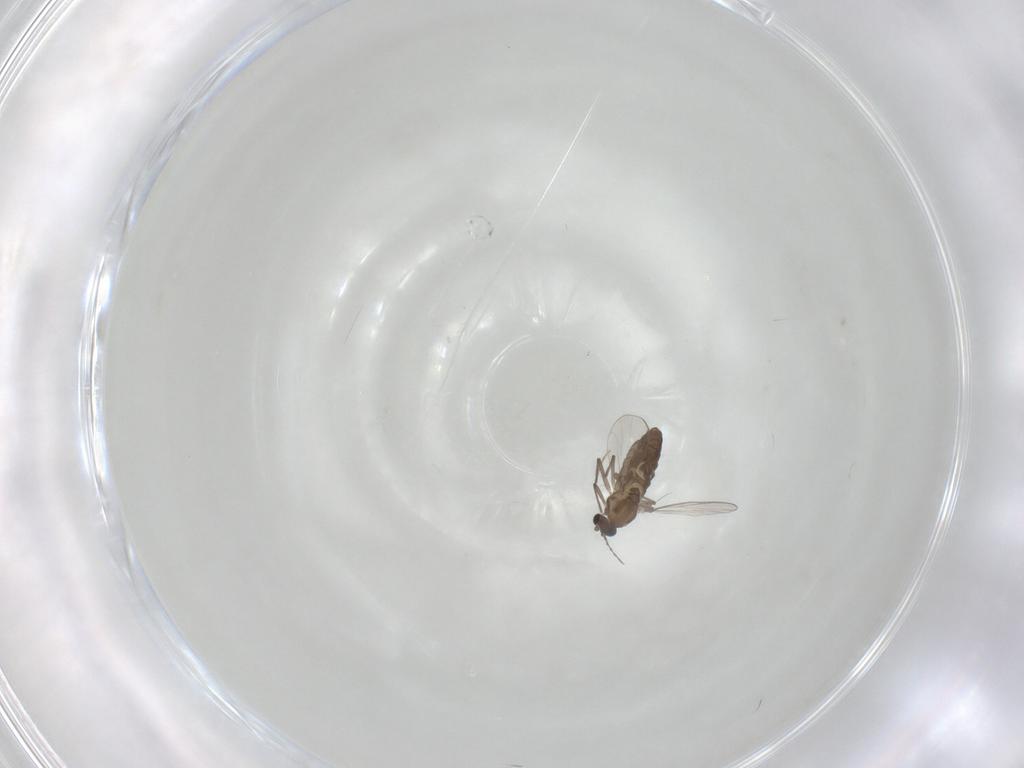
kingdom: Animalia
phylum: Arthropoda
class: Insecta
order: Diptera
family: Chironomidae
